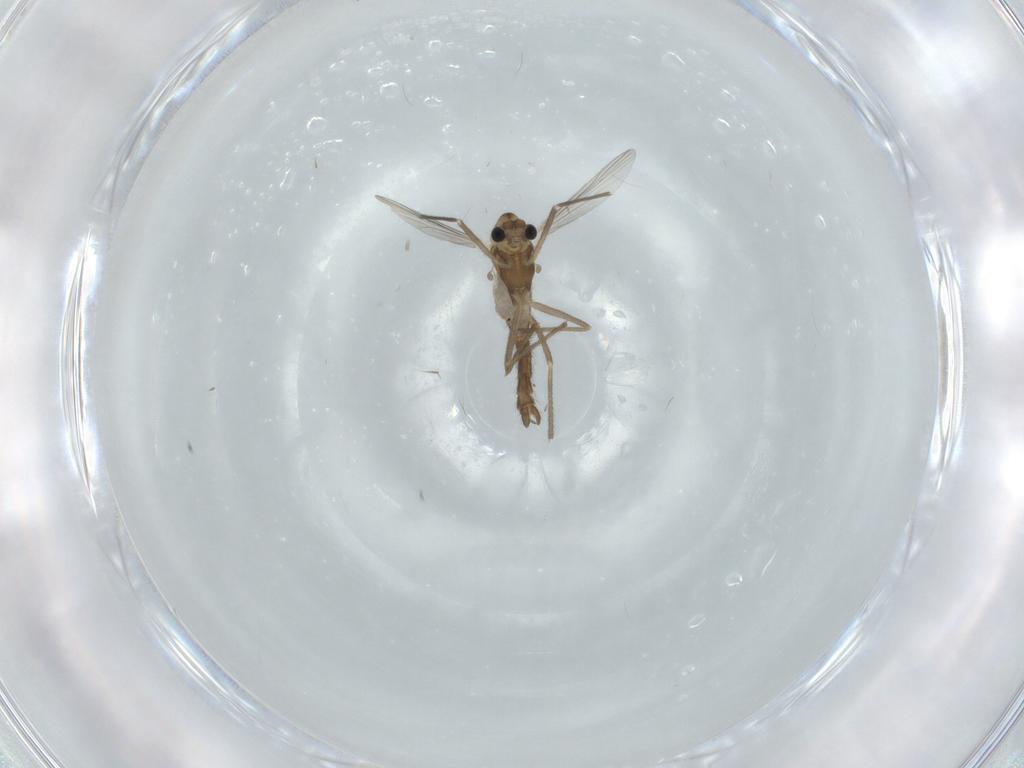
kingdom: Animalia
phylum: Arthropoda
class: Insecta
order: Diptera
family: Chironomidae
